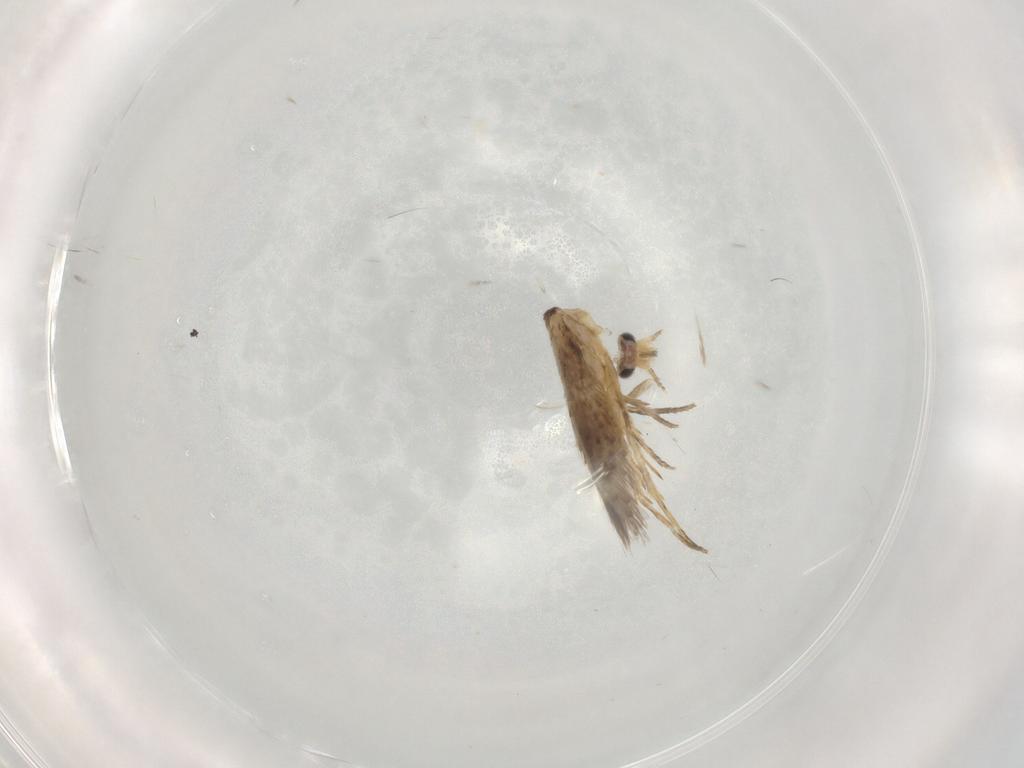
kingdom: Animalia
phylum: Arthropoda
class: Insecta
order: Lepidoptera
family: Nepticulidae
